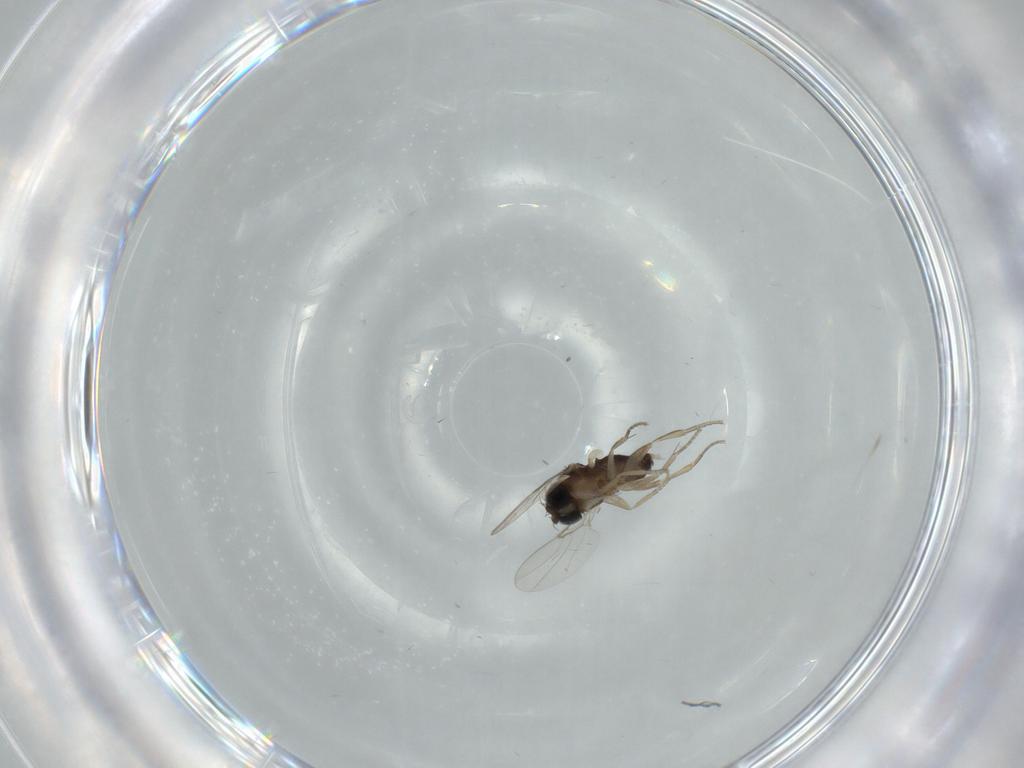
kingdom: Animalia
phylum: Arthropoda
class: Insecta
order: Diptera
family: Phoridae
